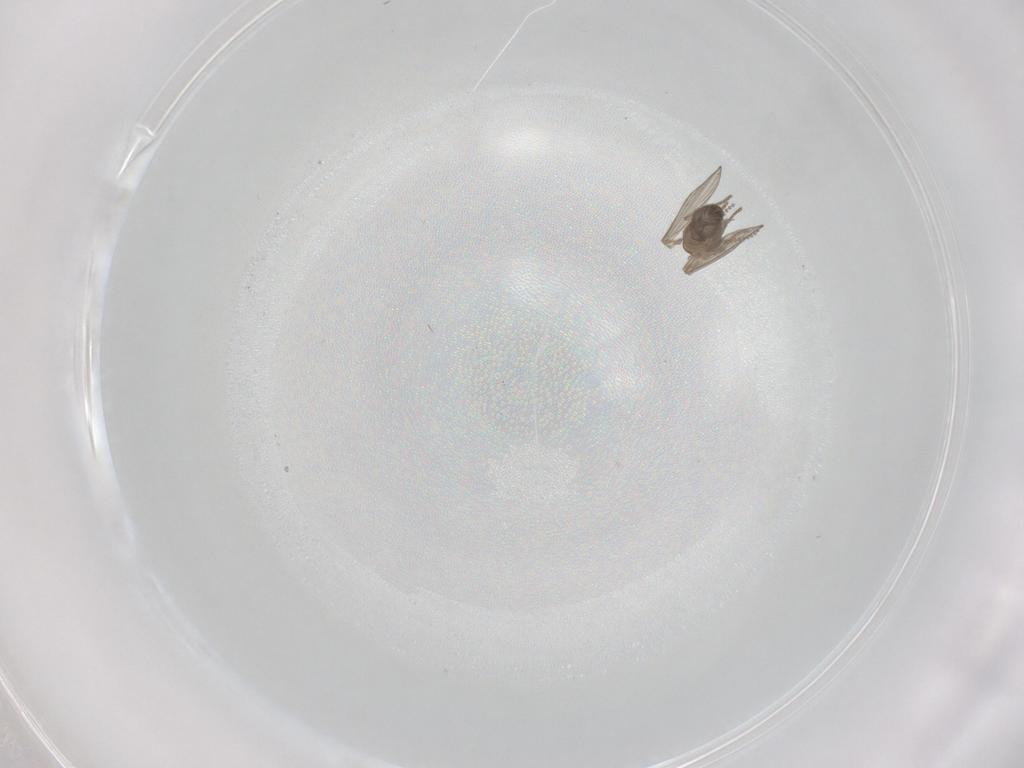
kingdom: Animalia
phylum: Arthropoda
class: Insecta
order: Diptera
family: Psychodidae
